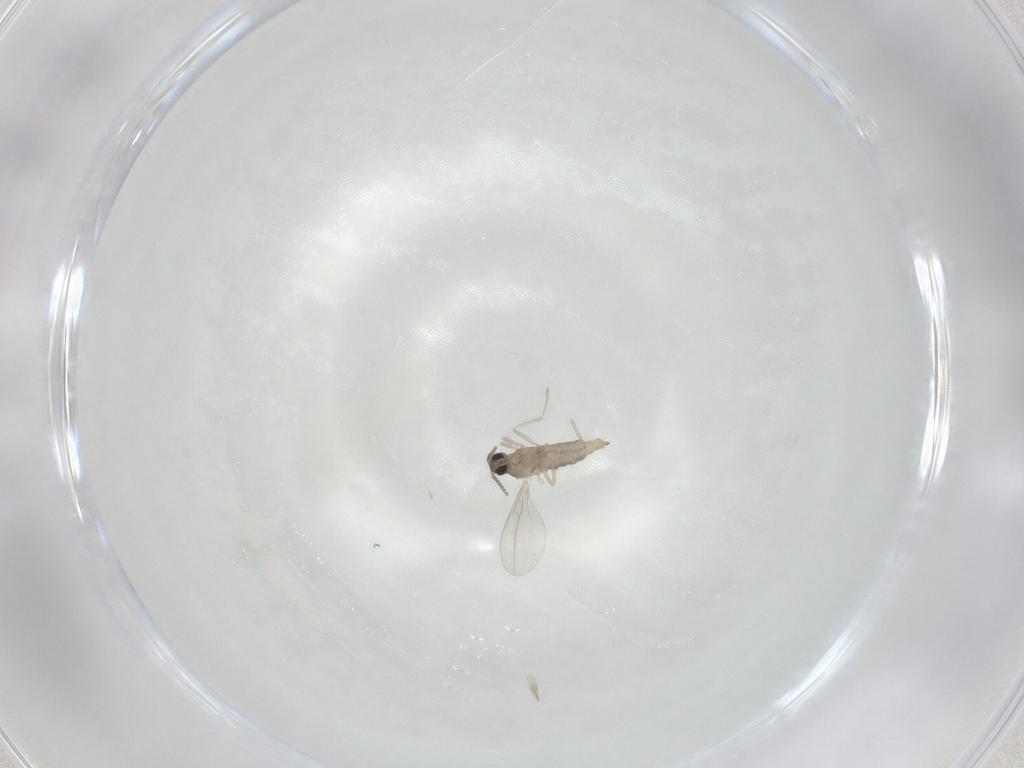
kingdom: Animalia
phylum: Arthropoda
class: Insecta
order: Diptera
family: Cecidomyiidae
